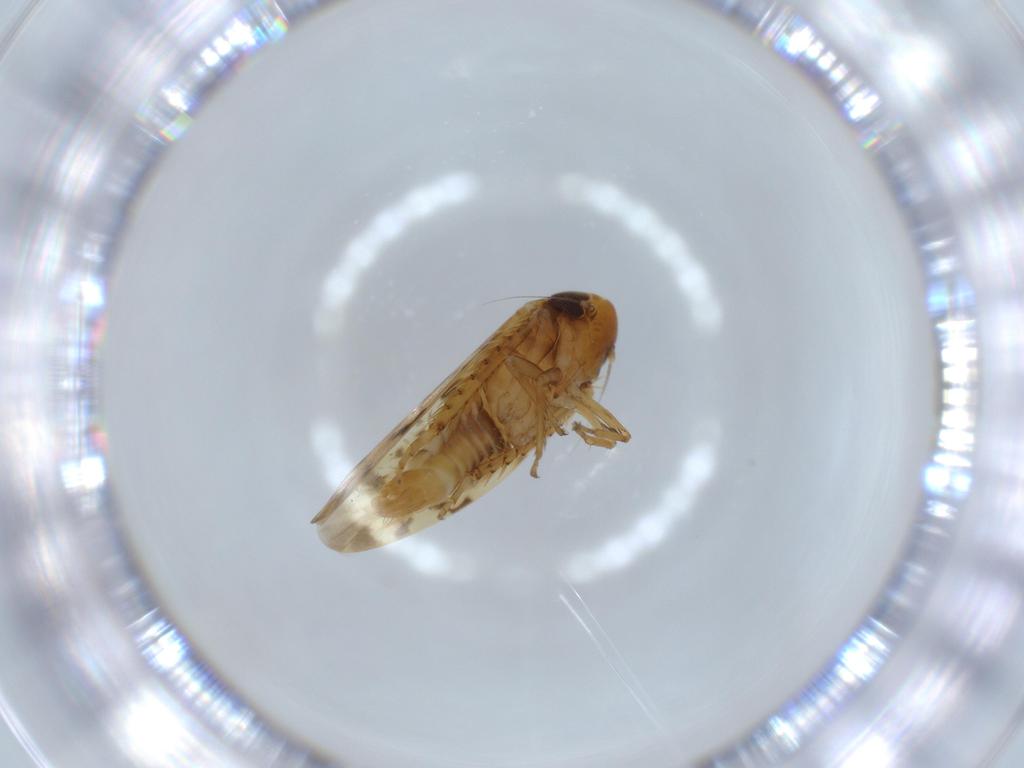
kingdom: Animalia
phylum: Arthropoda
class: Insecta
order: Hemiptera
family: Cicadellidae
